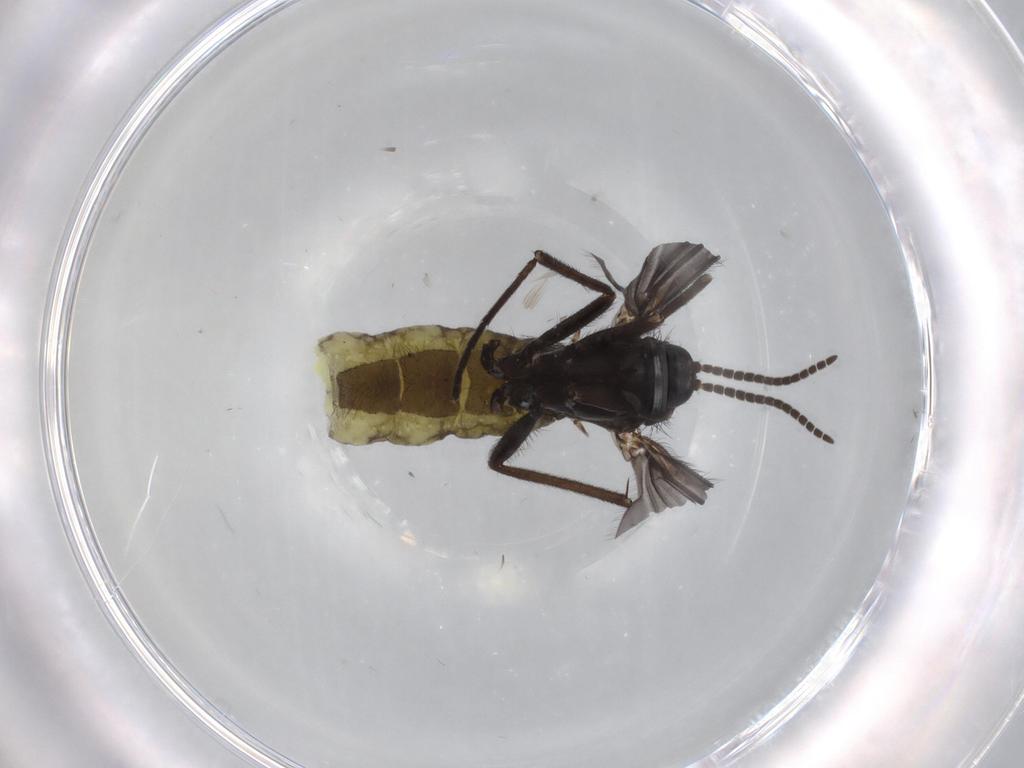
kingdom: Animalia
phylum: Arthropoda
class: Insecta
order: Diptera
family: Sciaridae
